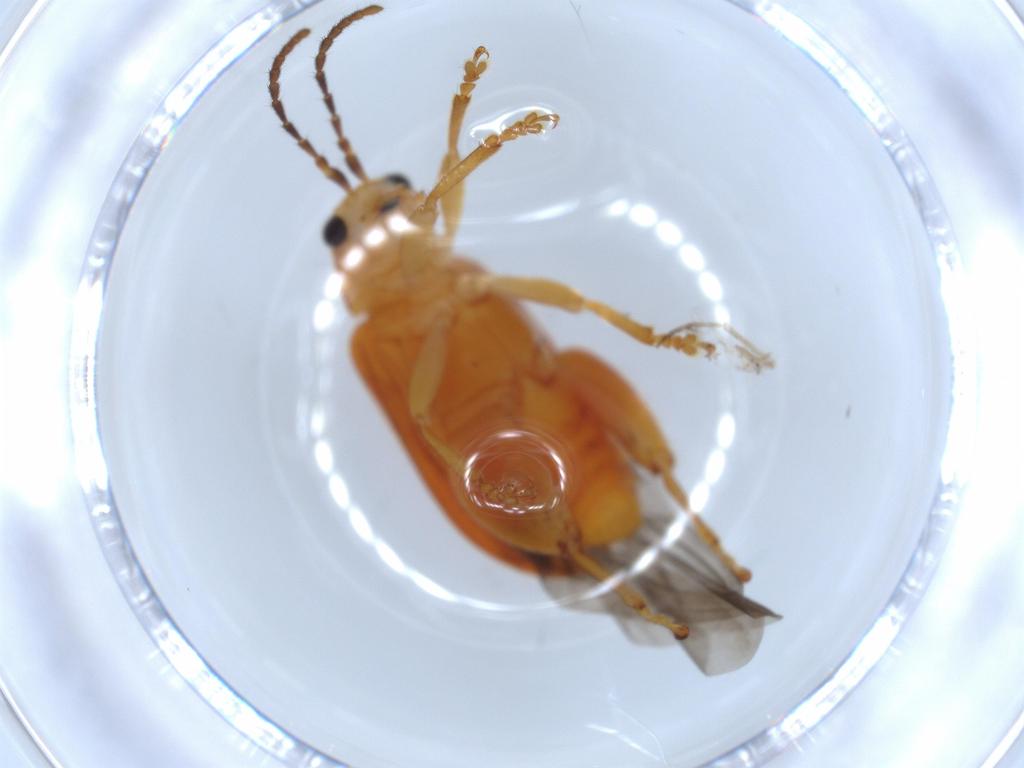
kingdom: Animalia
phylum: Arthropoda
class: Insecta
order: Coleoptera
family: Chrysomelidae
